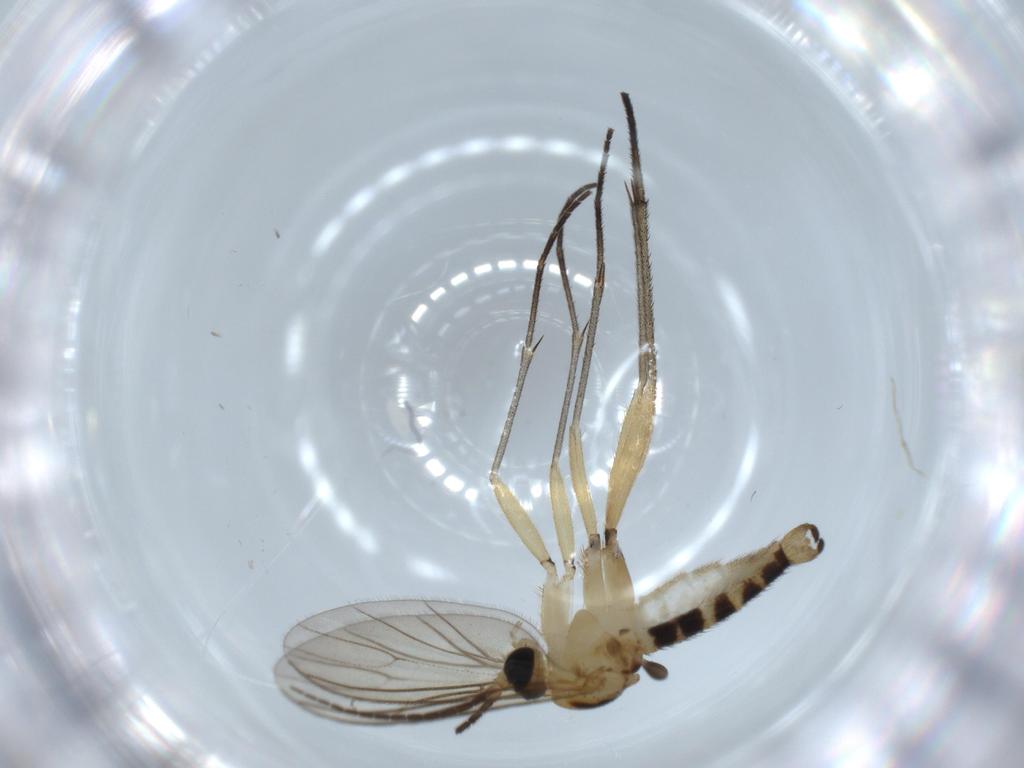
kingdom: Animalia
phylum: Arthropoda
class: Insecta
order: Diptera
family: Sciaridae
